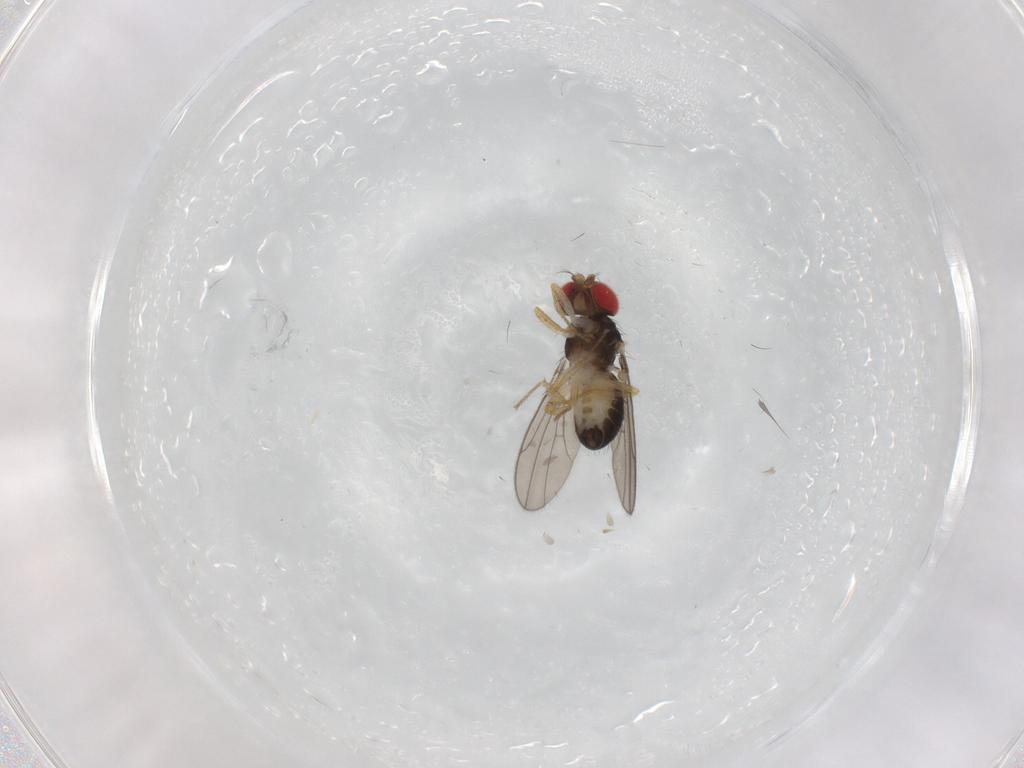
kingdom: Animalia
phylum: Arthropoda
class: Insecta
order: Diptera
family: Drosophilidae
